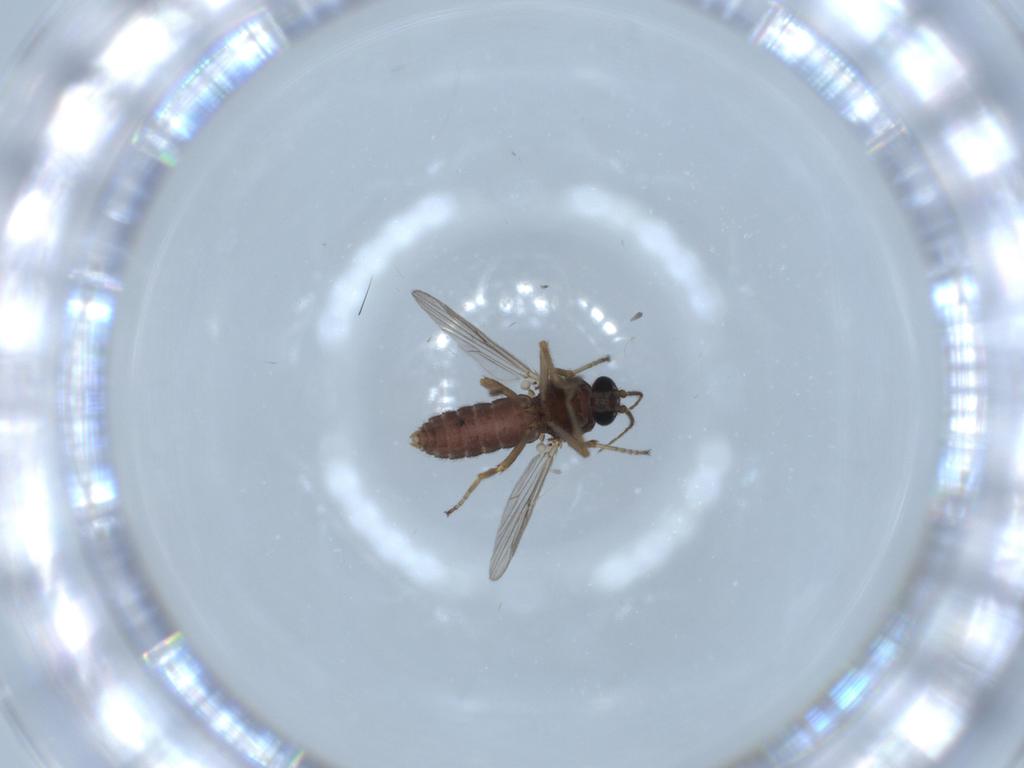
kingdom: Animalia
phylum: Arthropoda
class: Insecta
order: Diptera
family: Ceratopogonidae
